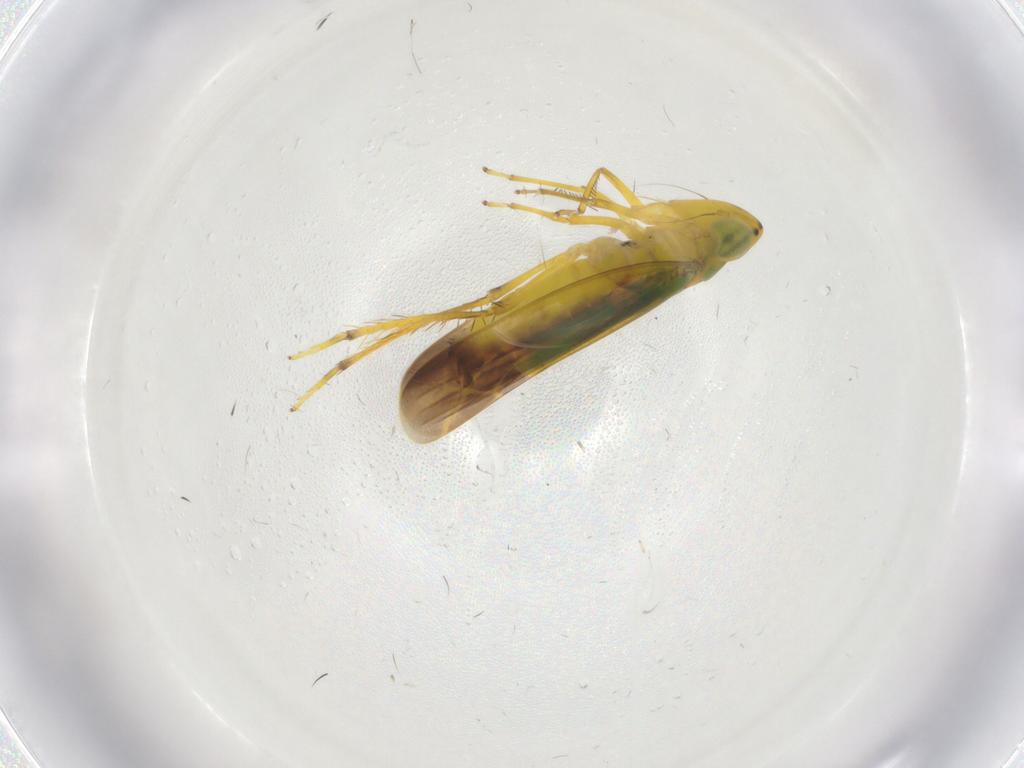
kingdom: Animalia
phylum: Arthropoda
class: Insecta
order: Hemiptera
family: Cicadellidae
